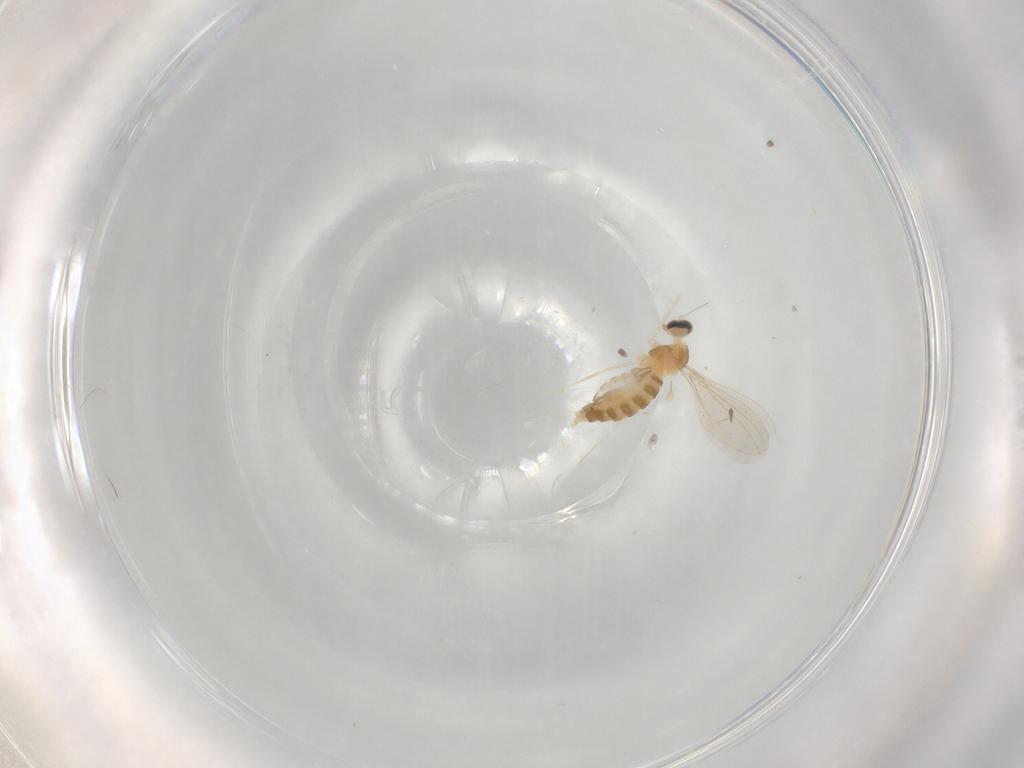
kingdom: Animalia
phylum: Arthropoda
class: Insecta
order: Diptera
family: Cecidomyiidae
